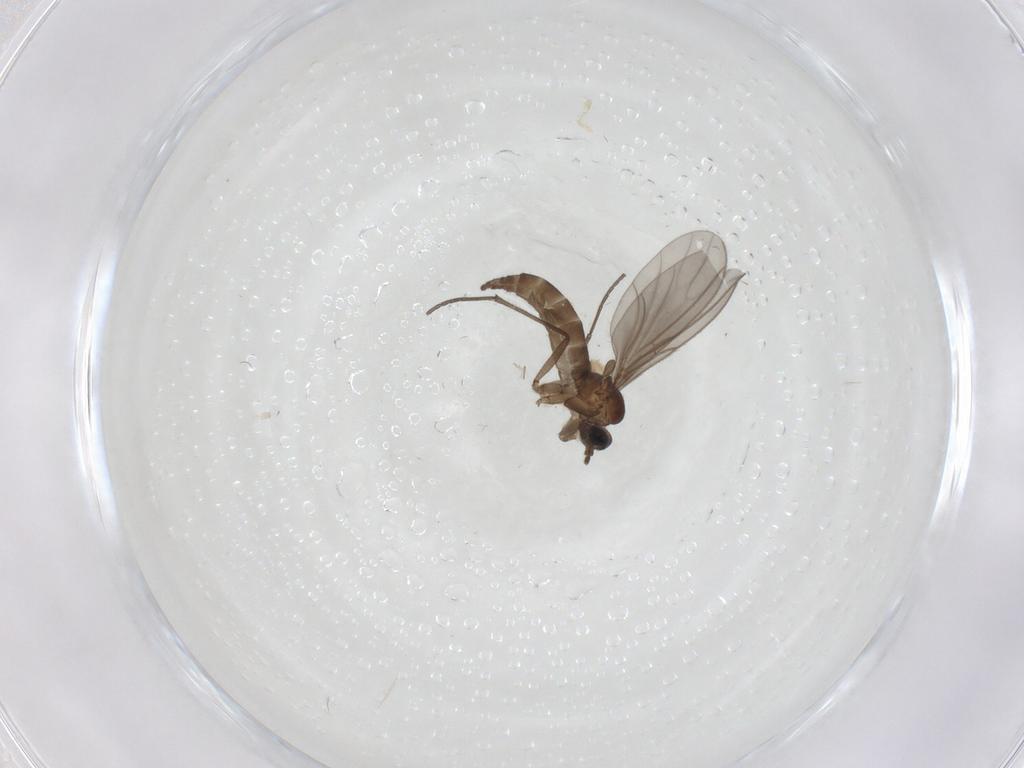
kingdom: Animalia
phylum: Arthropoda
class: Insecta
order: Diptera
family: Sciaridae
